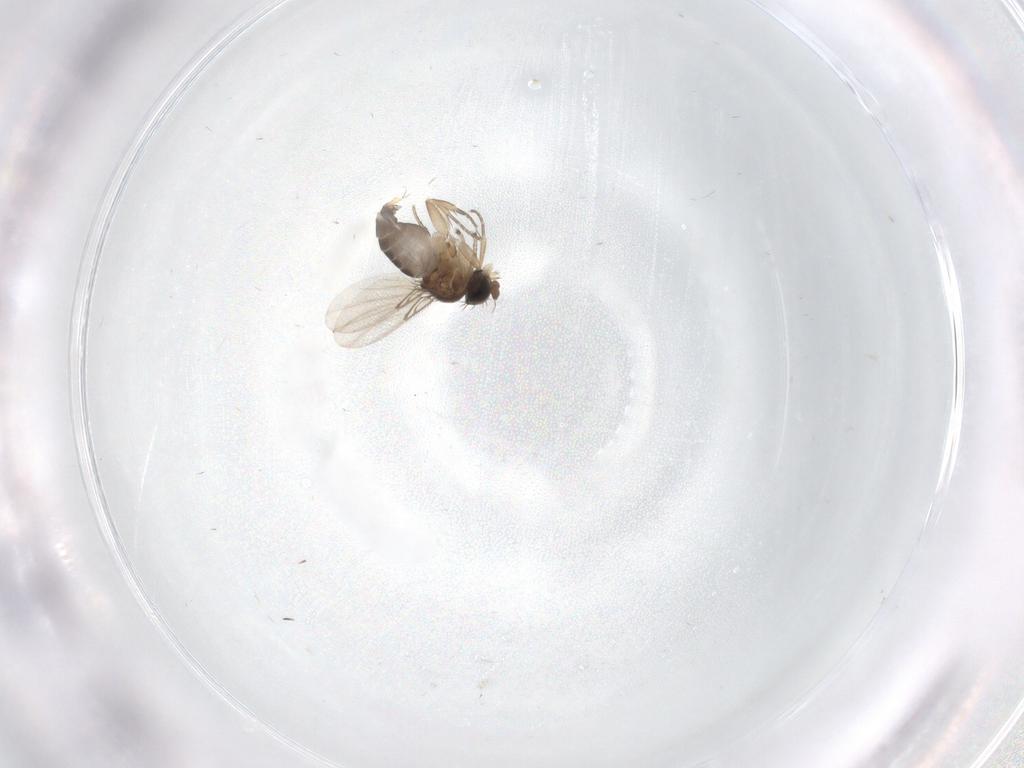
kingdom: Animalia
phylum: Arthropoda
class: Insecta
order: Diptera
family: Phoridae
